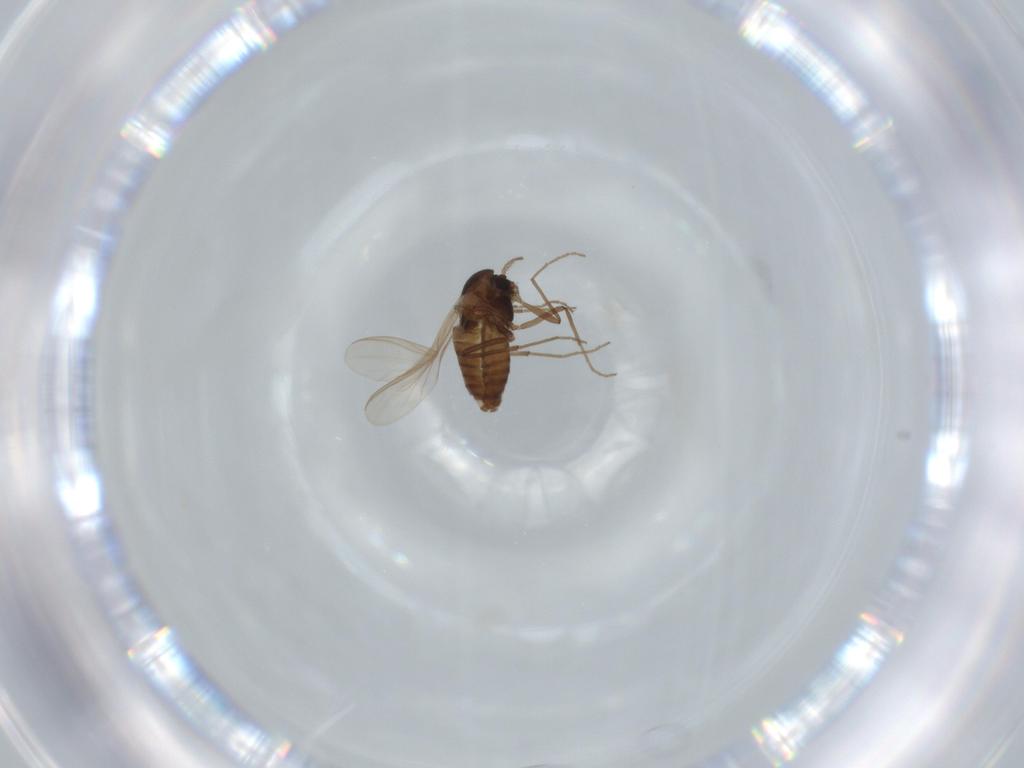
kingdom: Animalia
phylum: Arthropoda
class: Insecta
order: Diptera
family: Chironomidae
